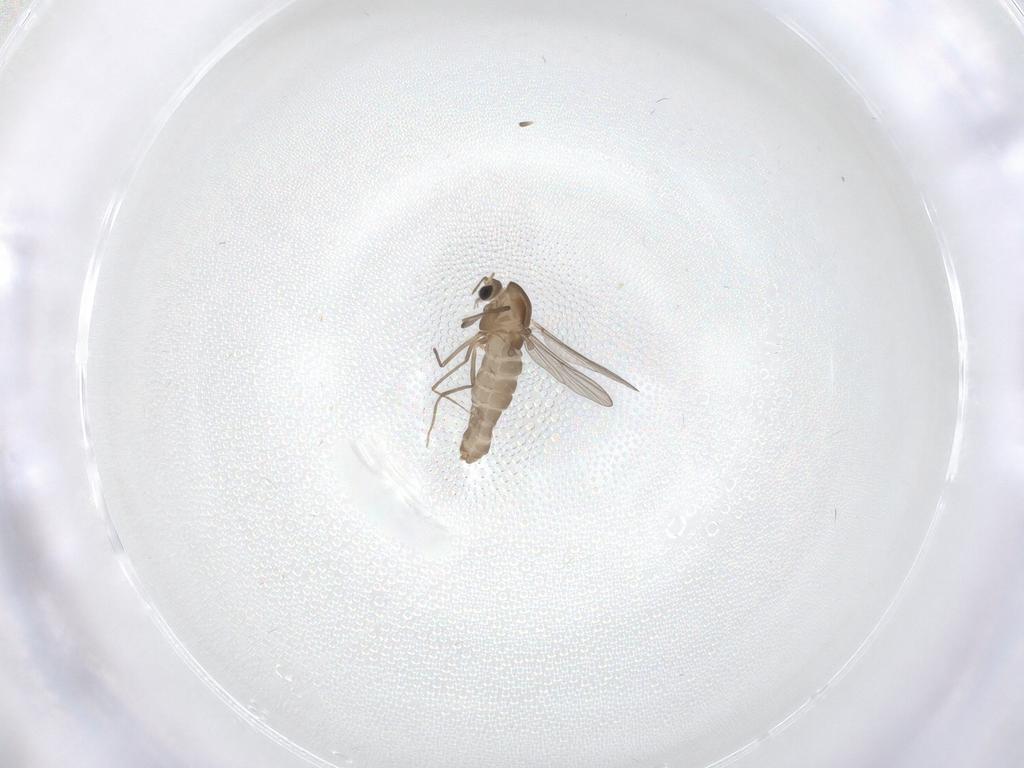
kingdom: Animalia
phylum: Arthropoda
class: Insecta
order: Diptera
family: Chironomidae
